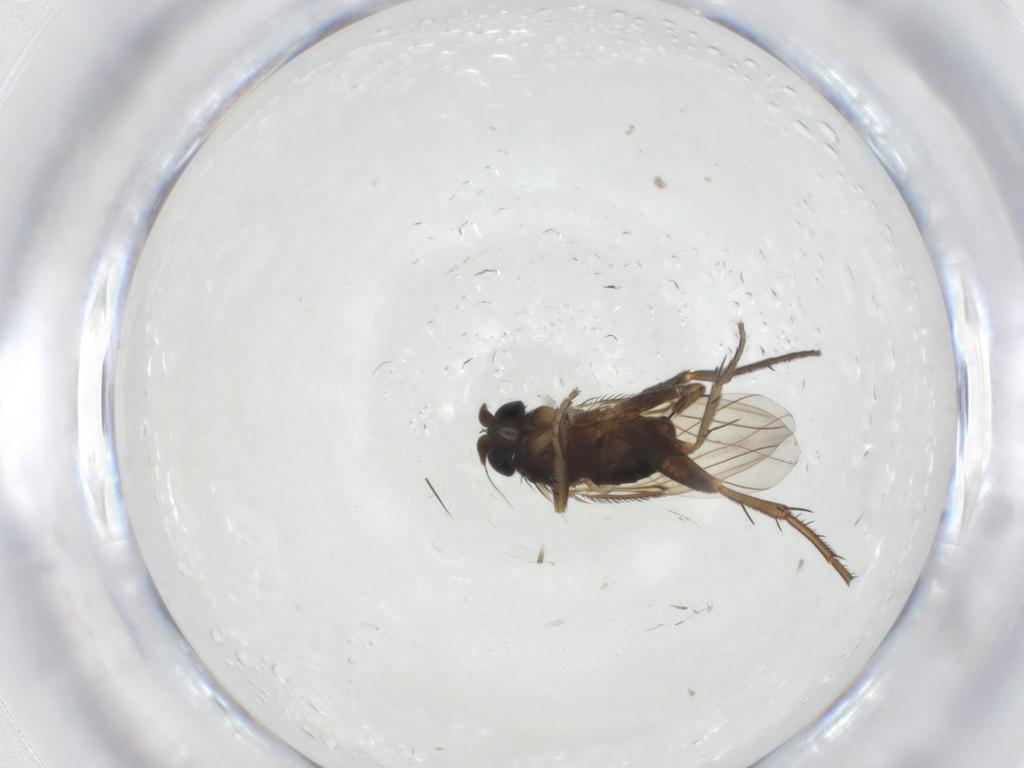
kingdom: Animalia
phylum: Arthropoda
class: Insecta
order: Diptera
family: Psychodidae
